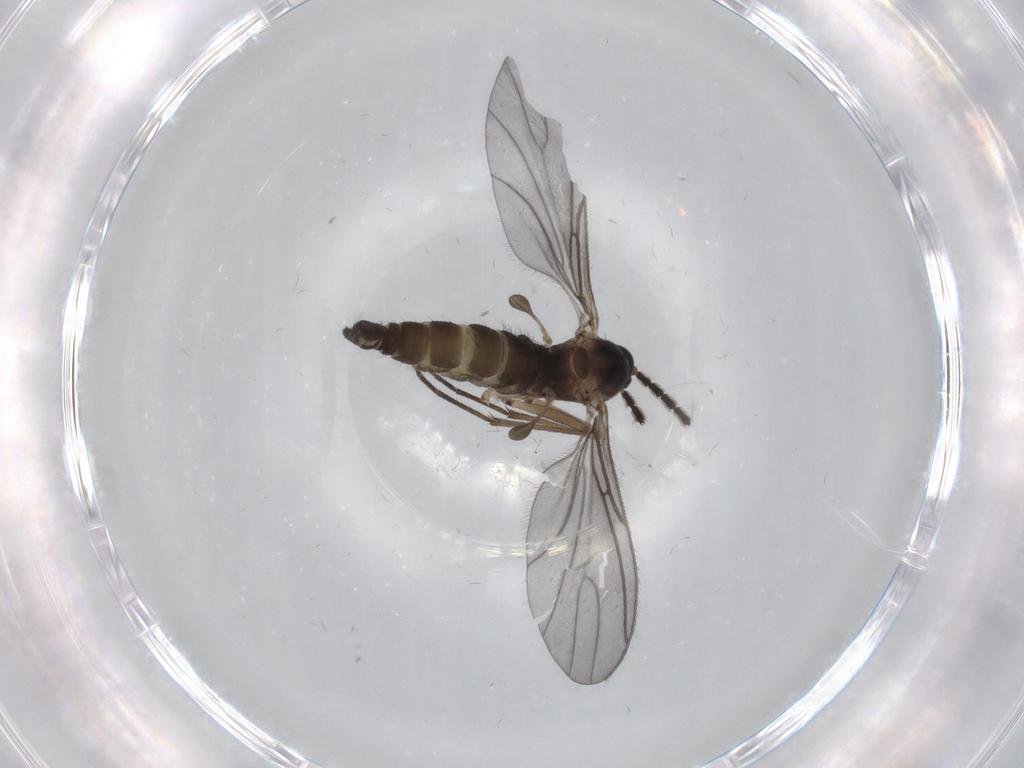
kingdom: Animalia
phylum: Arthropoda
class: Insecta
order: Diptera
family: Sciaridae
